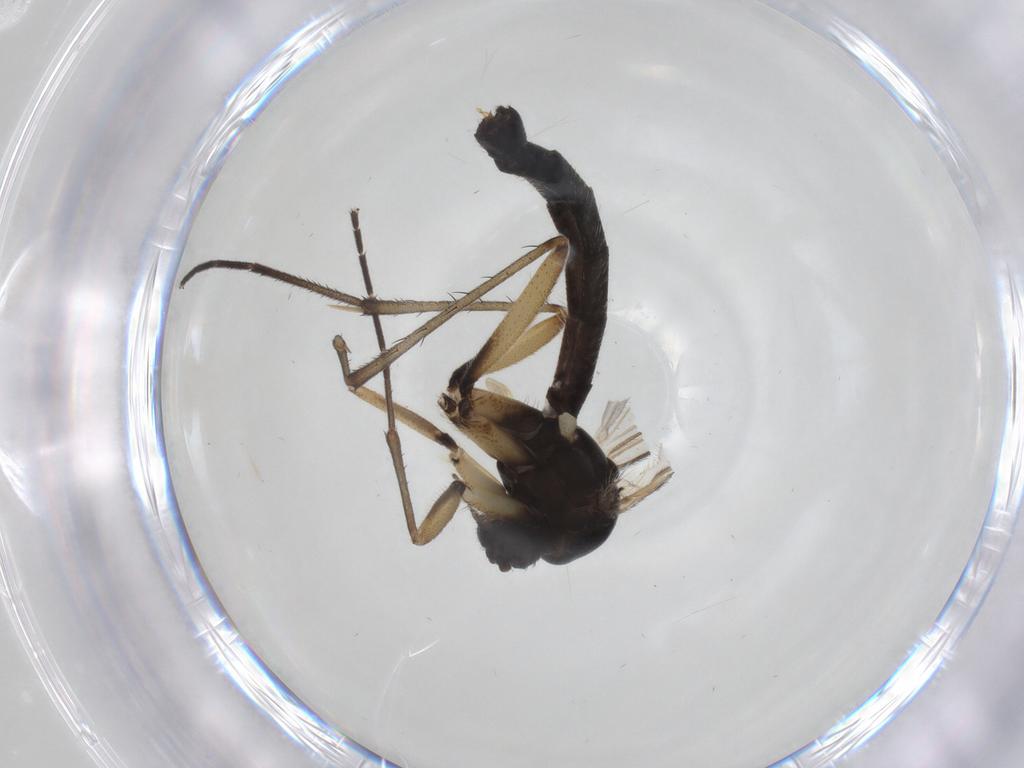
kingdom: Animalia
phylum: Arthropoda
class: Insecta
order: Diptera
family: Mycetophilidae
